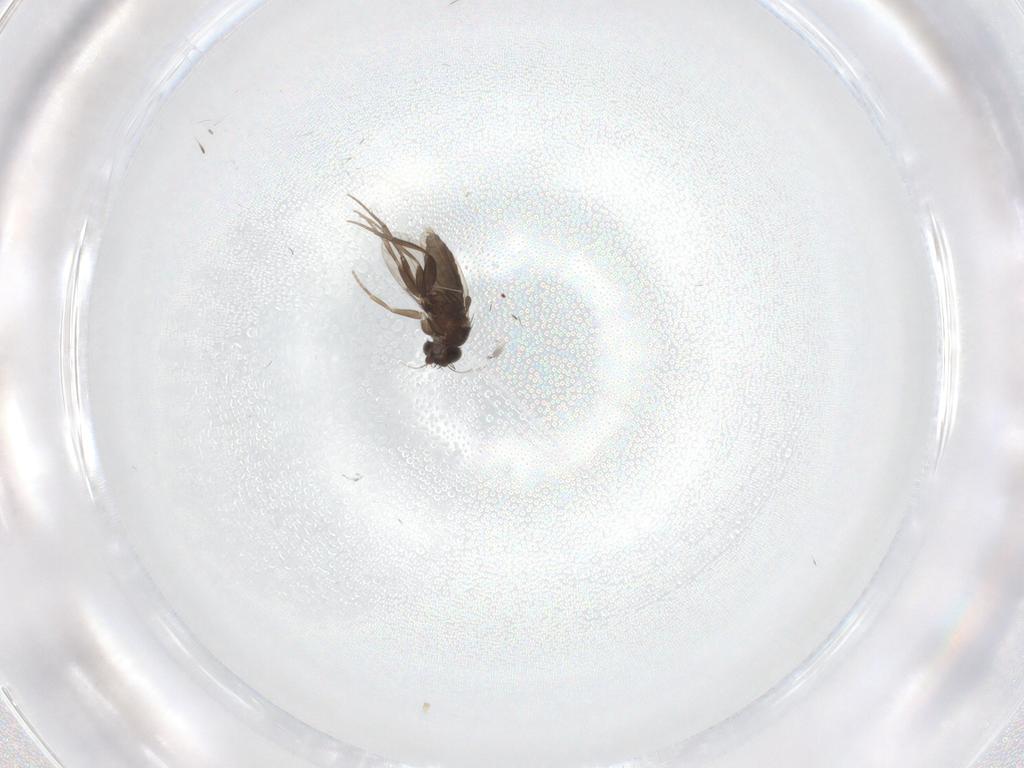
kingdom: Animalia
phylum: Arthropoda
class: Insecta
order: Diptera
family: Phoridae
